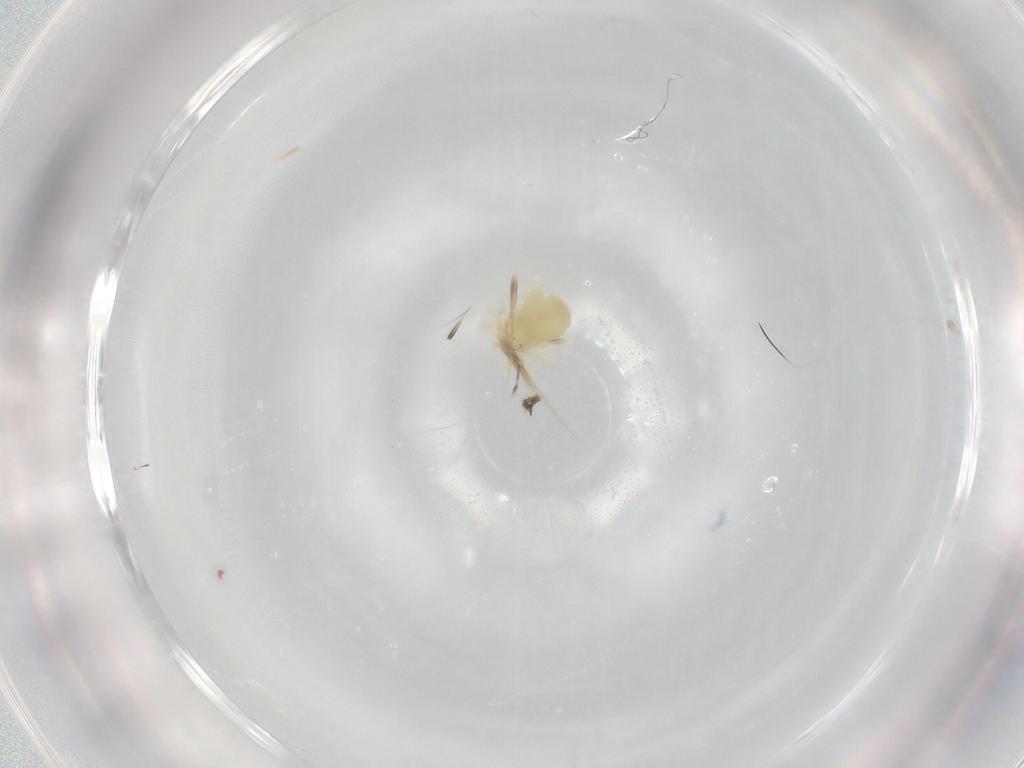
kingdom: Animalia
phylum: Arthropoda
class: Arachnida
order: Trombidiformes
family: Anystidae
